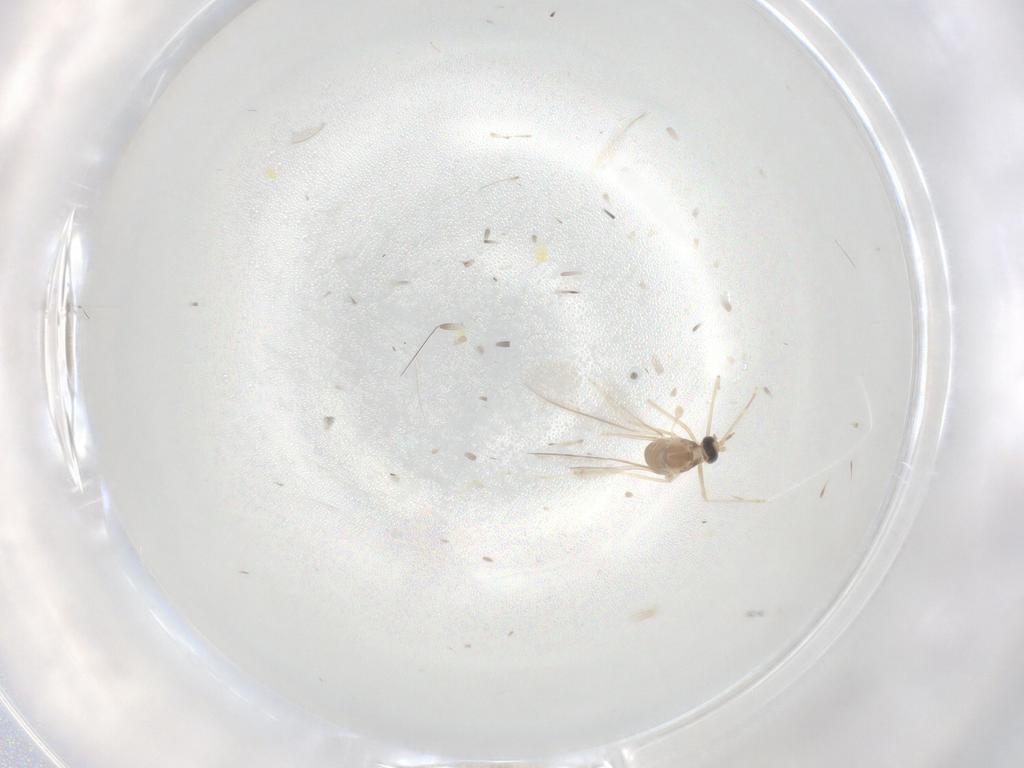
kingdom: Animalia
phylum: Arthropoda
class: Insecta
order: Diptera
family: Cecidomyiidae
